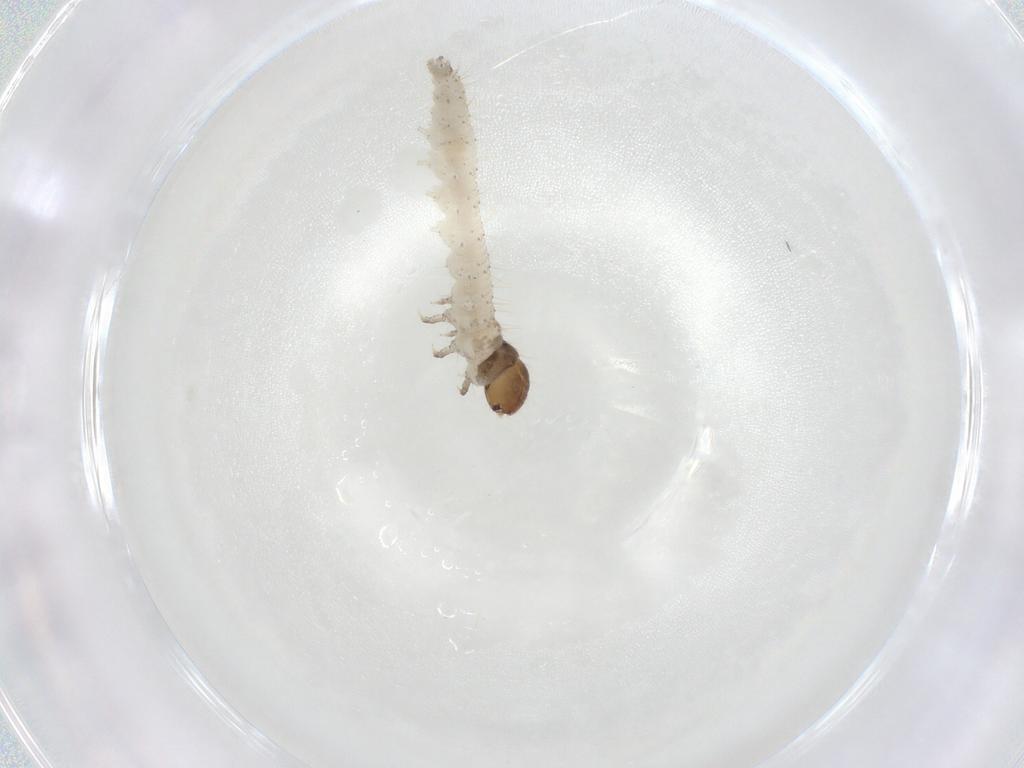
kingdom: Animalia
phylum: Arthropoda
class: Insecta
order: Lepidoptera
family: Hepialidae
